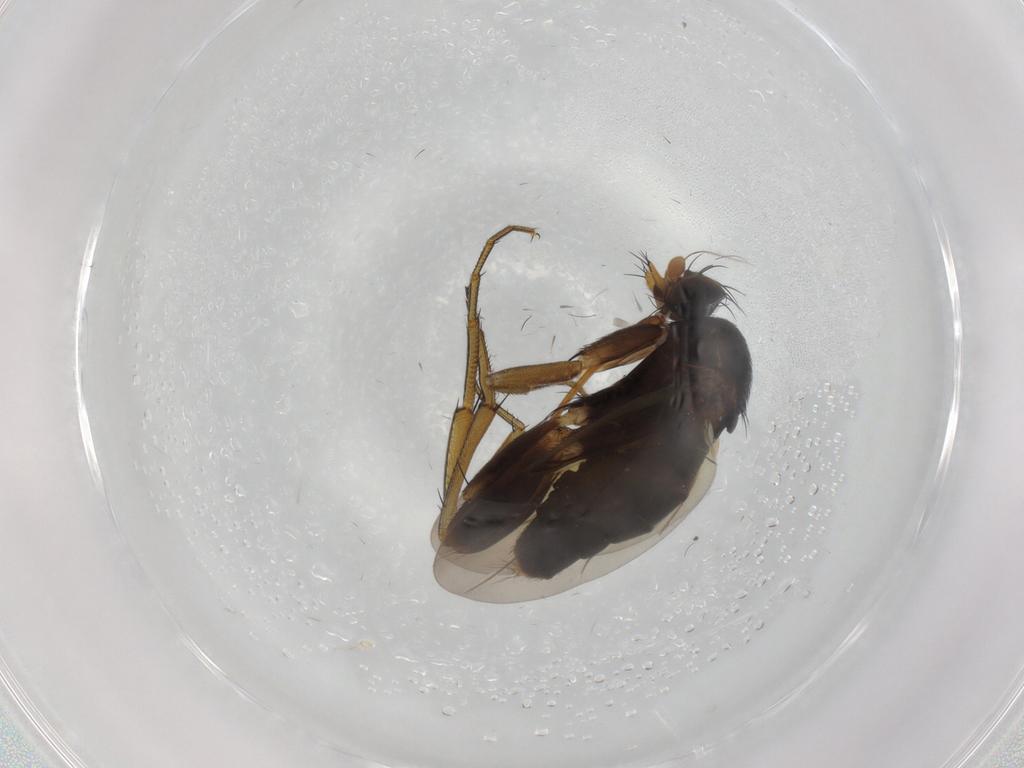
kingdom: Animalia
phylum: Arthropoda
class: Insecta
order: Diptera
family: Phoridae
